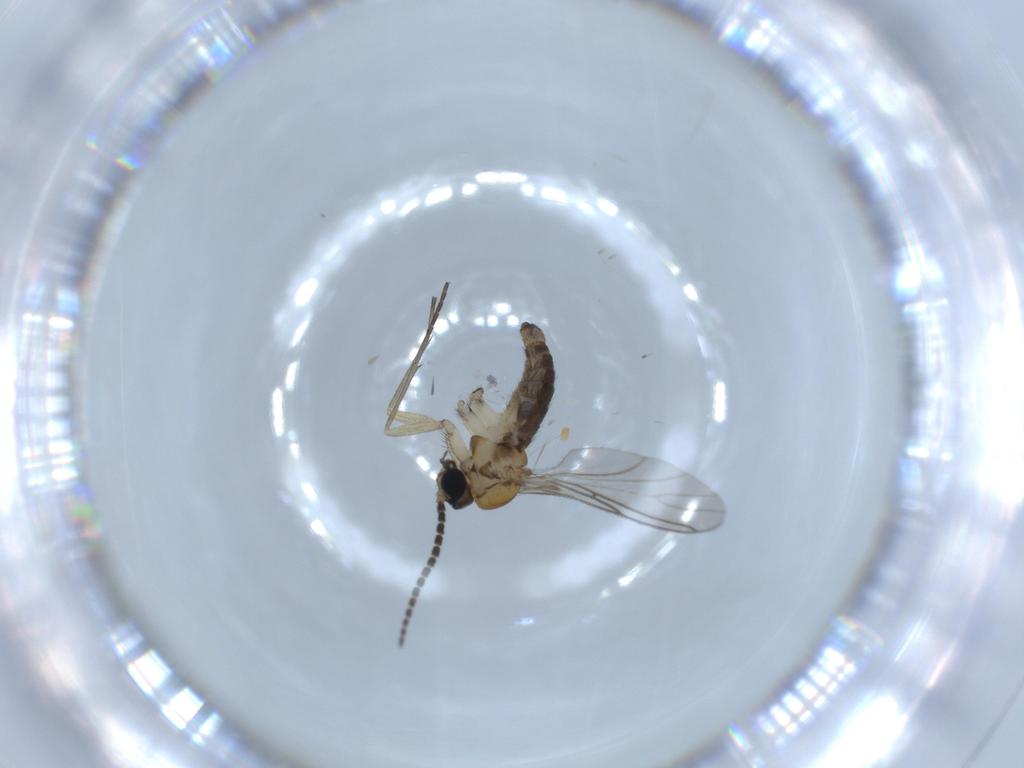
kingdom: Animalia
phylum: Arthropoda
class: Insecta
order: Diptera
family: Sciaridae
